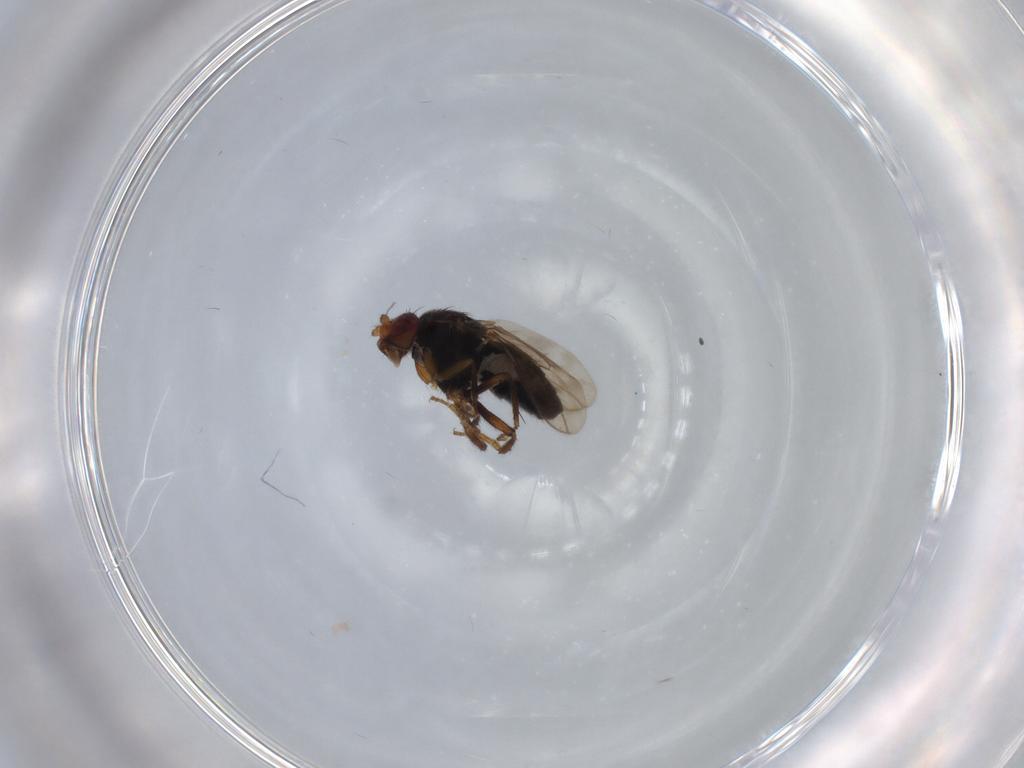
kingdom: Animalia
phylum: Arthropoda
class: Insecta
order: Diptera
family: Sphaeroceridae
